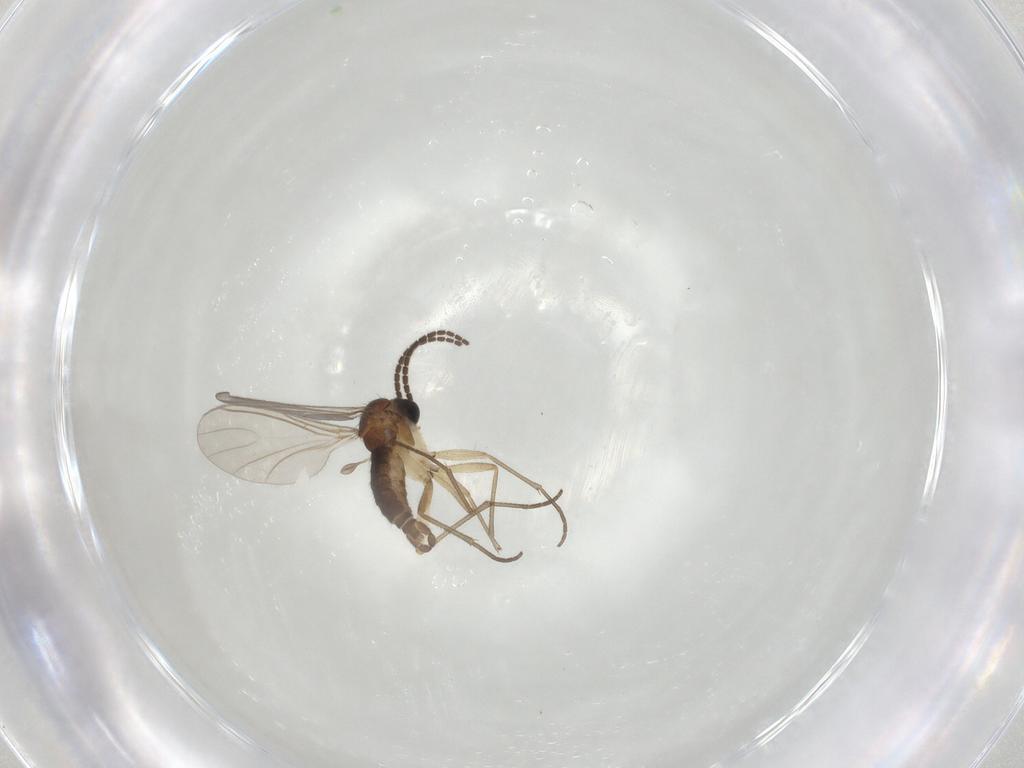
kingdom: Animalia
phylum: Arthropoda
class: Insecta
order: Diptera
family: Sciaridae
